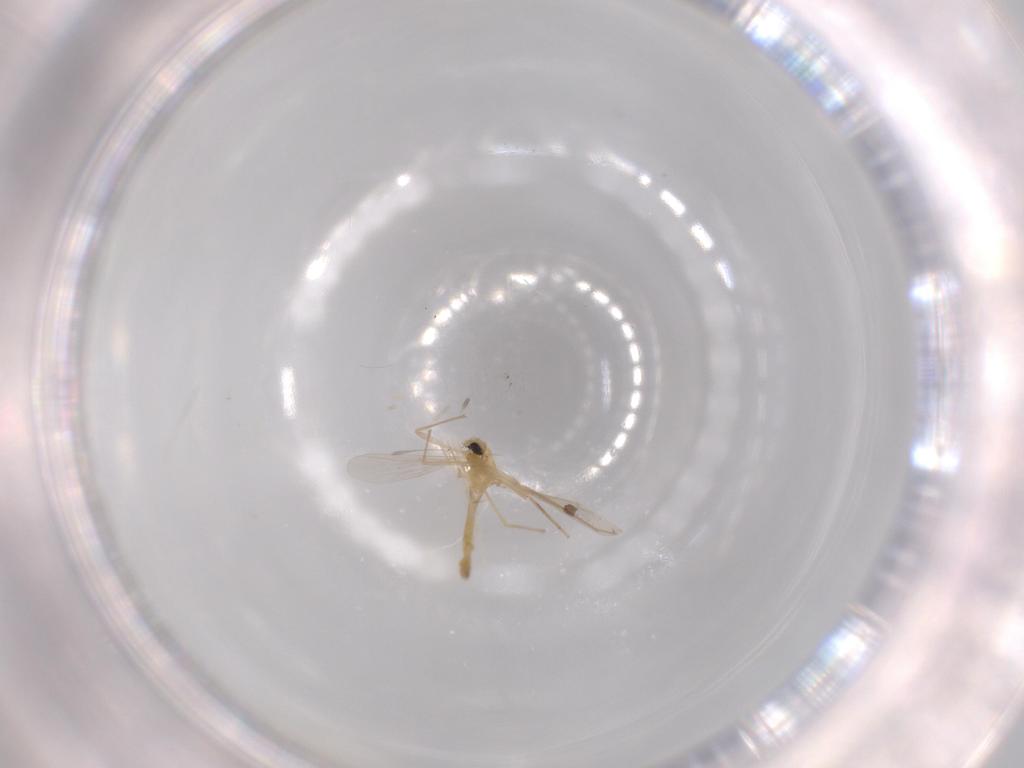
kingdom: Animalia
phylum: Arthropoda
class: Insecta
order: Diptera
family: Chironomidae
